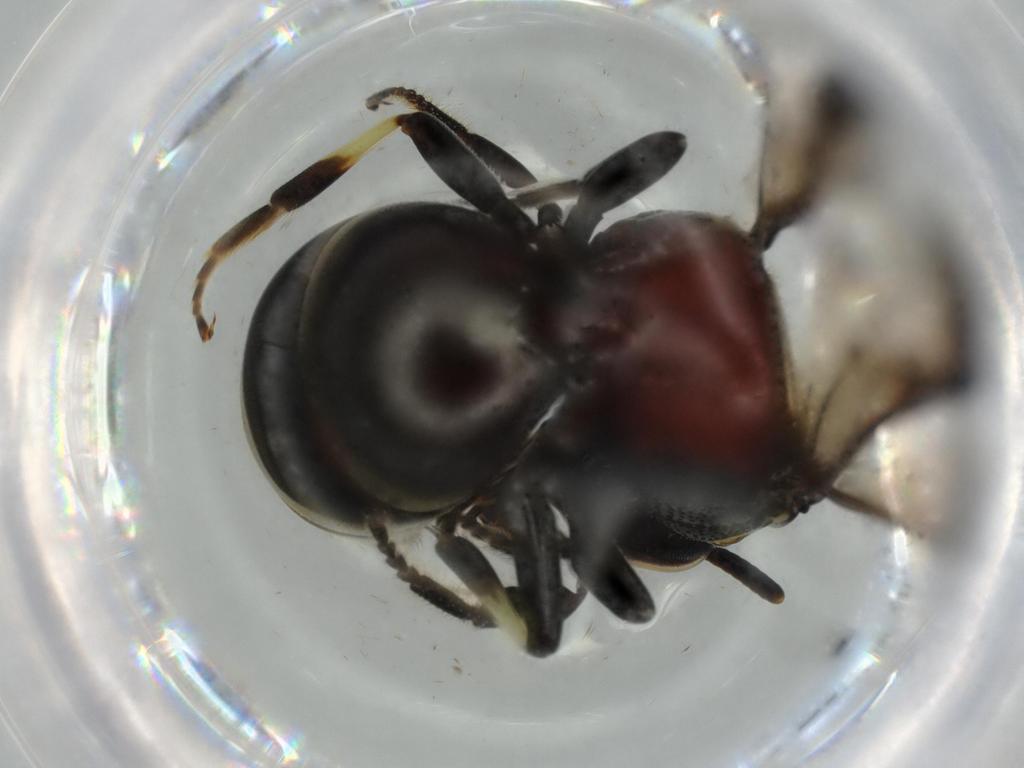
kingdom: Animalia
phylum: Arthropoda
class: Insecta
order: Hymenoptera
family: Colletidae
